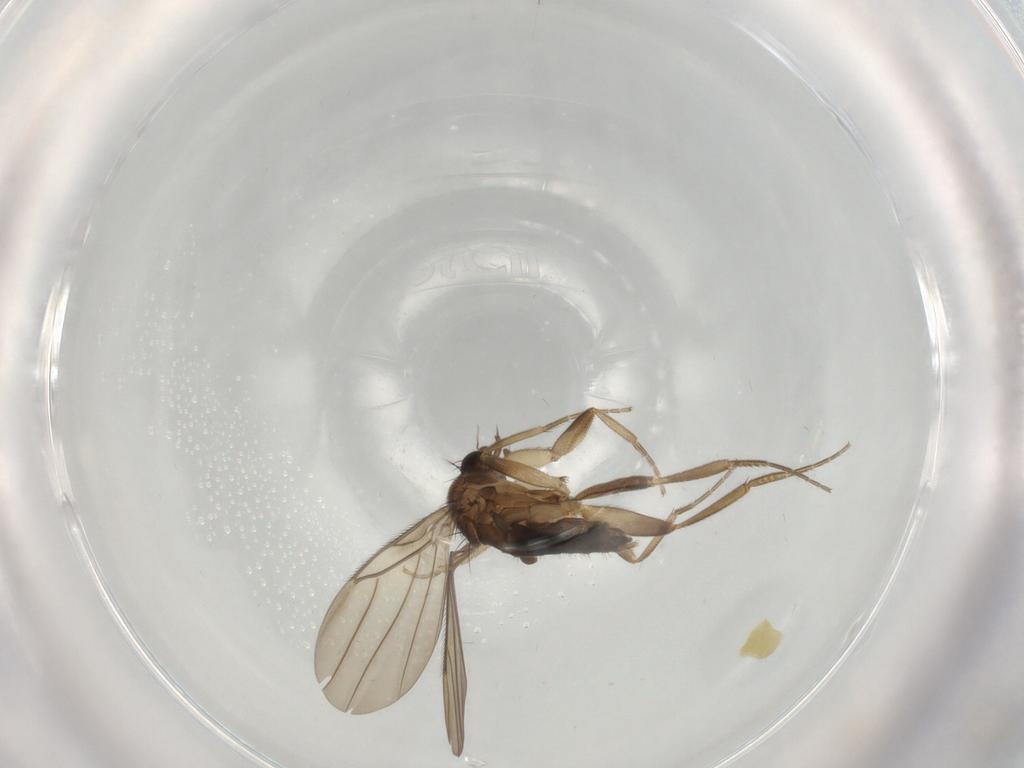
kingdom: Animalia
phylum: Arthropoda
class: Insecta
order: Diptera
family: Phoridae
